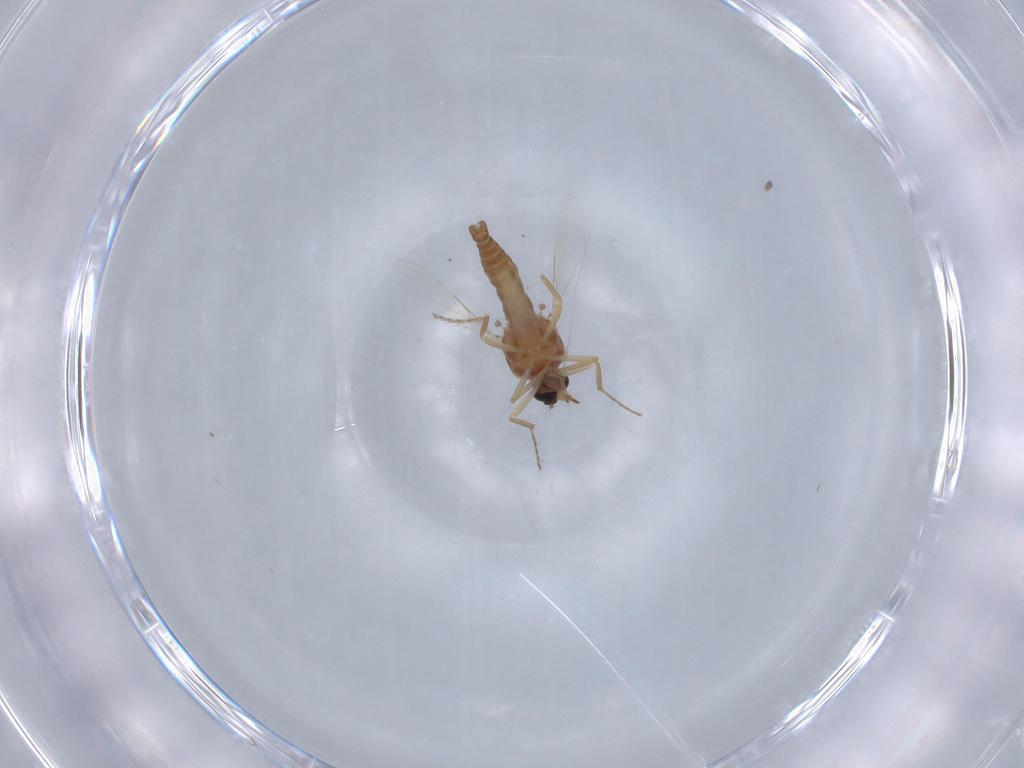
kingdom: Animalia
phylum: Arthropoda
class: Insecta
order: Diptera
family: Ceratopogonidae
